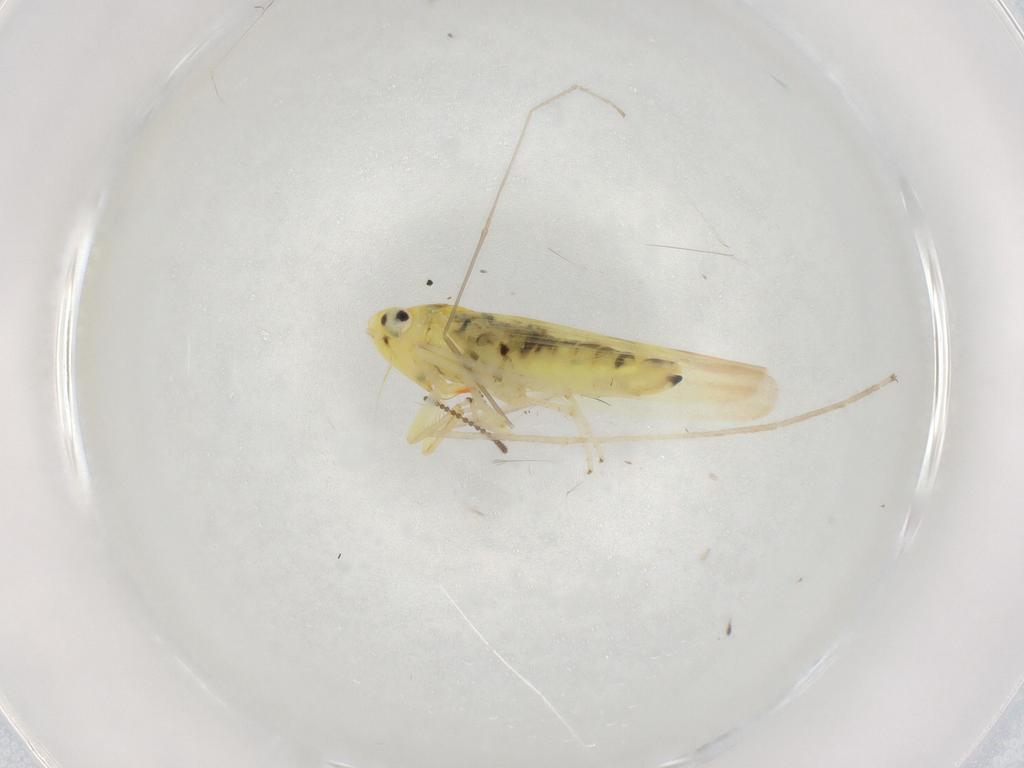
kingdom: Animalia
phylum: Arthropoda
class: Insecta
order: Hemiptera
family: Cicadellidae
